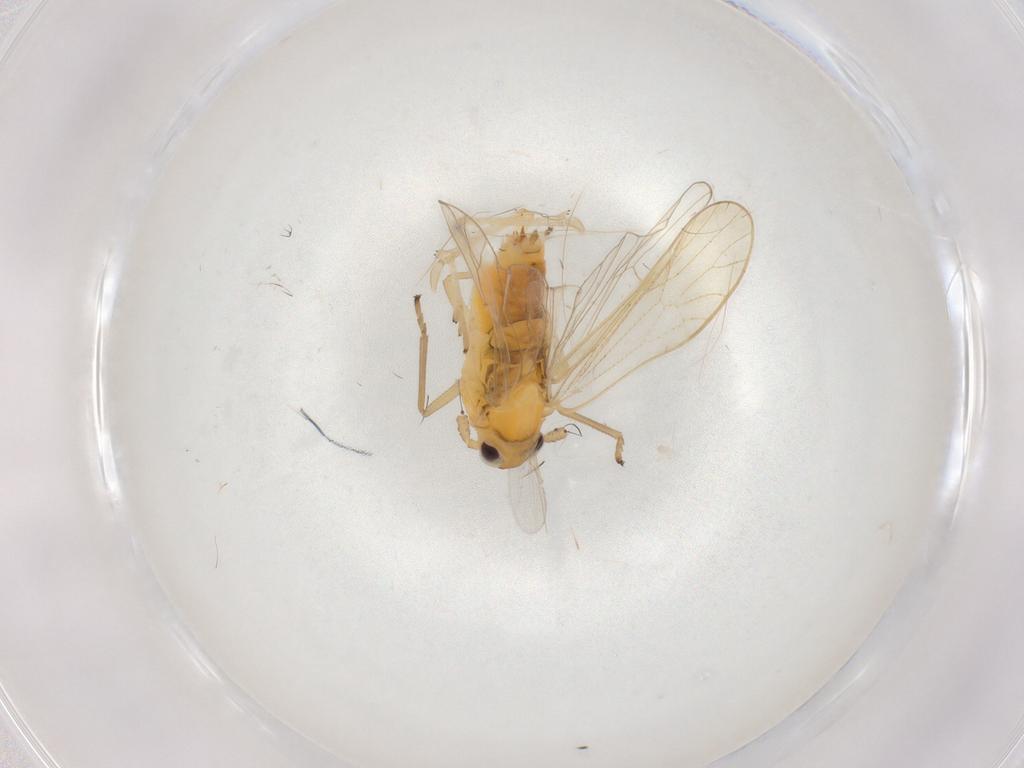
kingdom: Animalia
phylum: Arthropoda
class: Insecta
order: Hemiptera
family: Delphacidae
